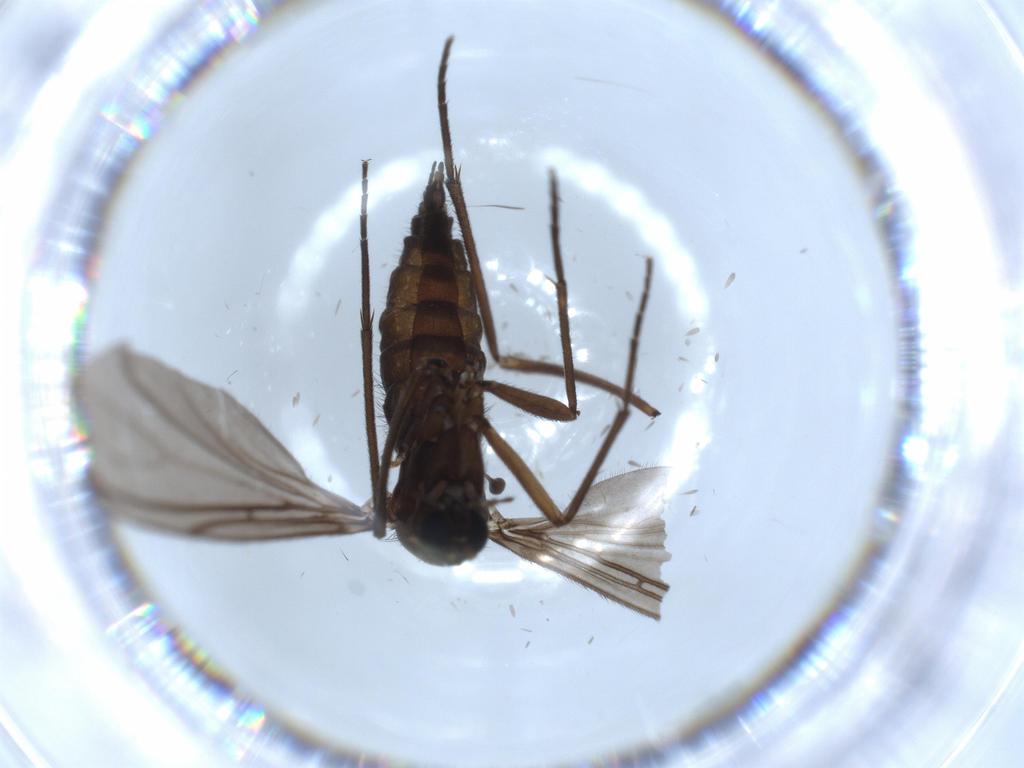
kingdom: Animalia
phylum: Arthropoda
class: Insecta
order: Diptera
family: Sciaridae
